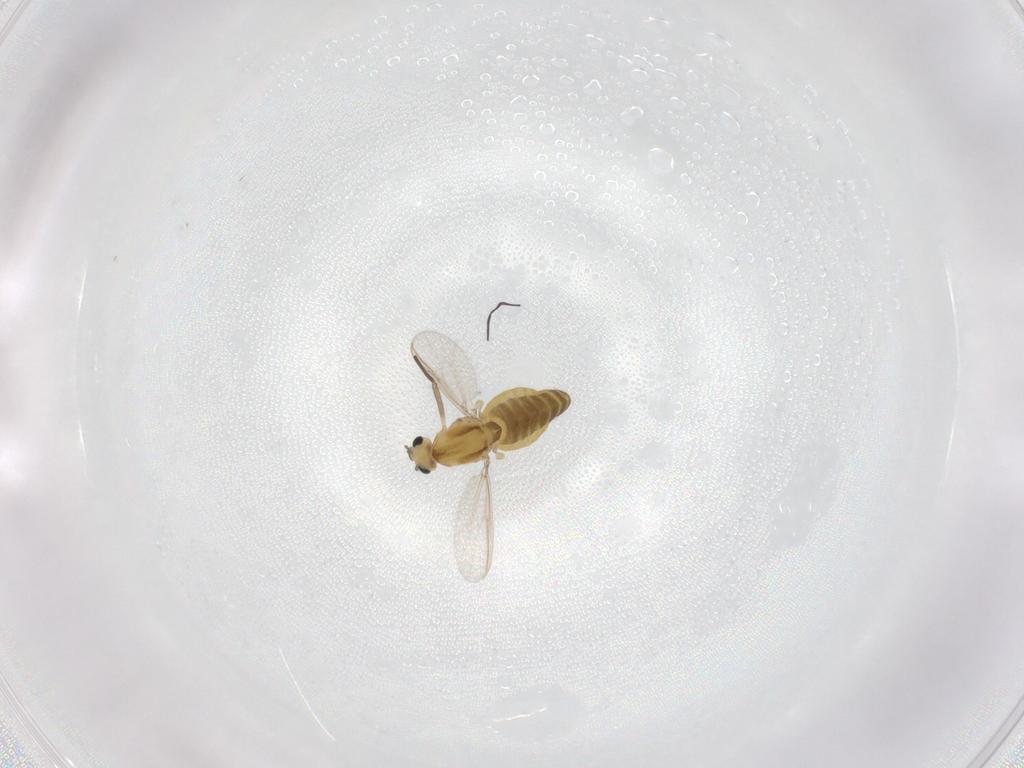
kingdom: Animalia
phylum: Arthropoda
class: Insecta
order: Diptera
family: Chironomidae
